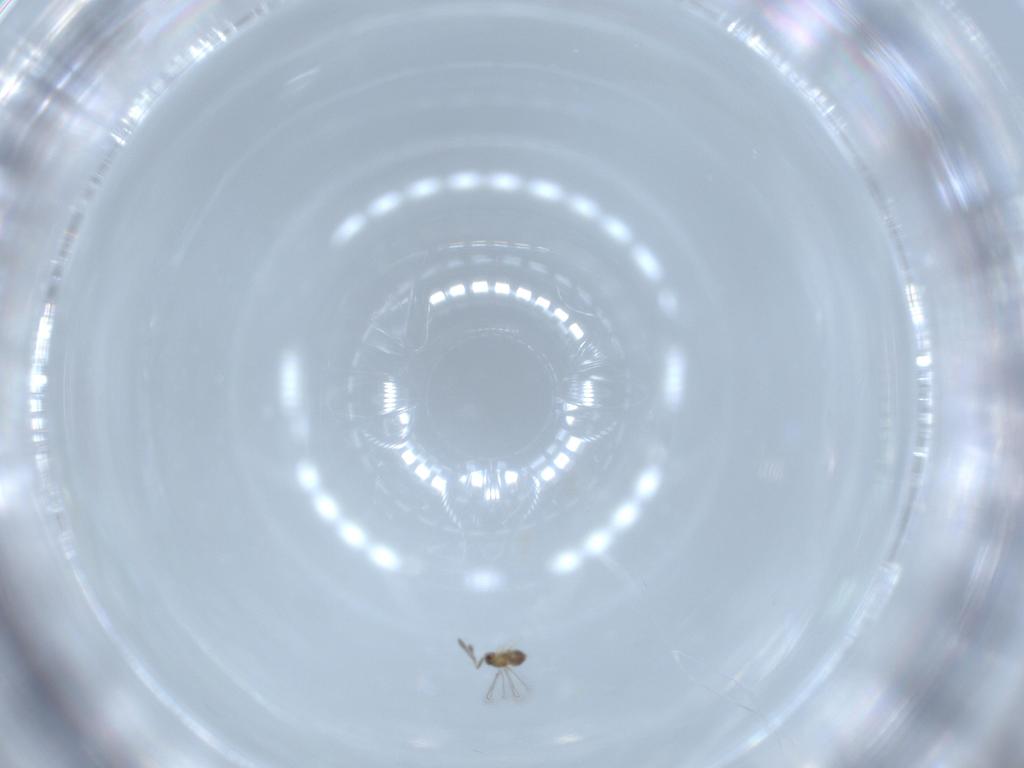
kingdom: Animalia
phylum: Arthropoda
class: Insecta
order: Hymenoptera
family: Mymaridae
